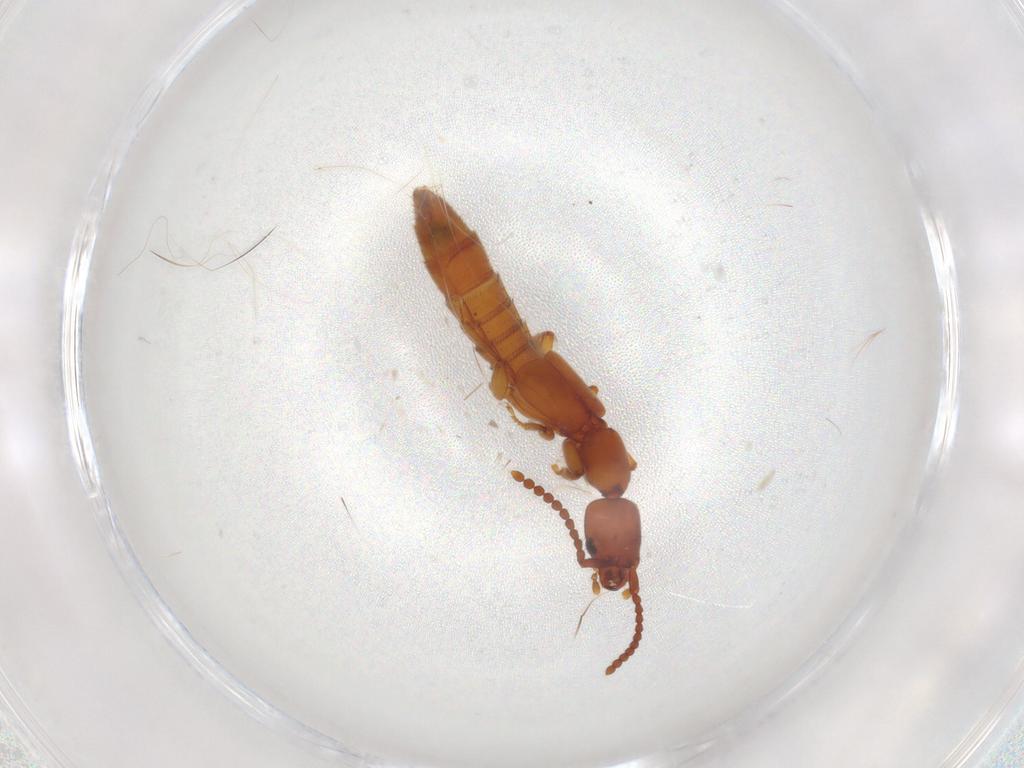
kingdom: Animalia
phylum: Arthropoda
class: Insecta
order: Coleoptera
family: Staphylinidae
